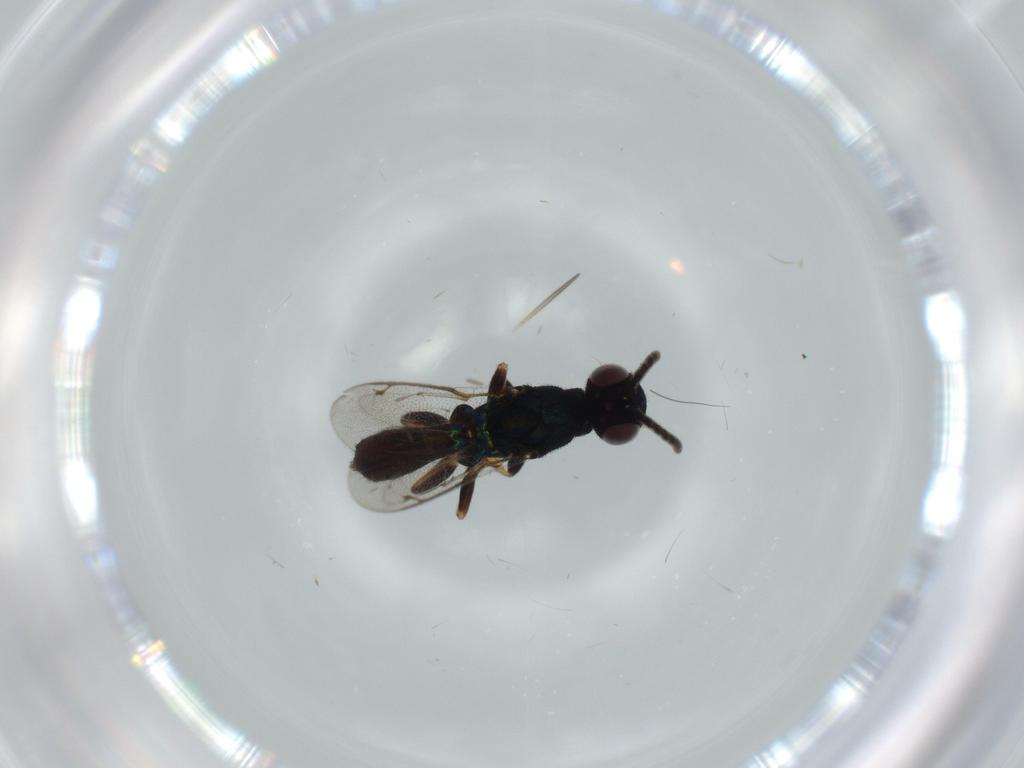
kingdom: Animalia
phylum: Arthropoda
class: Insecta
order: Hymenoptera
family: Eupelmidae
